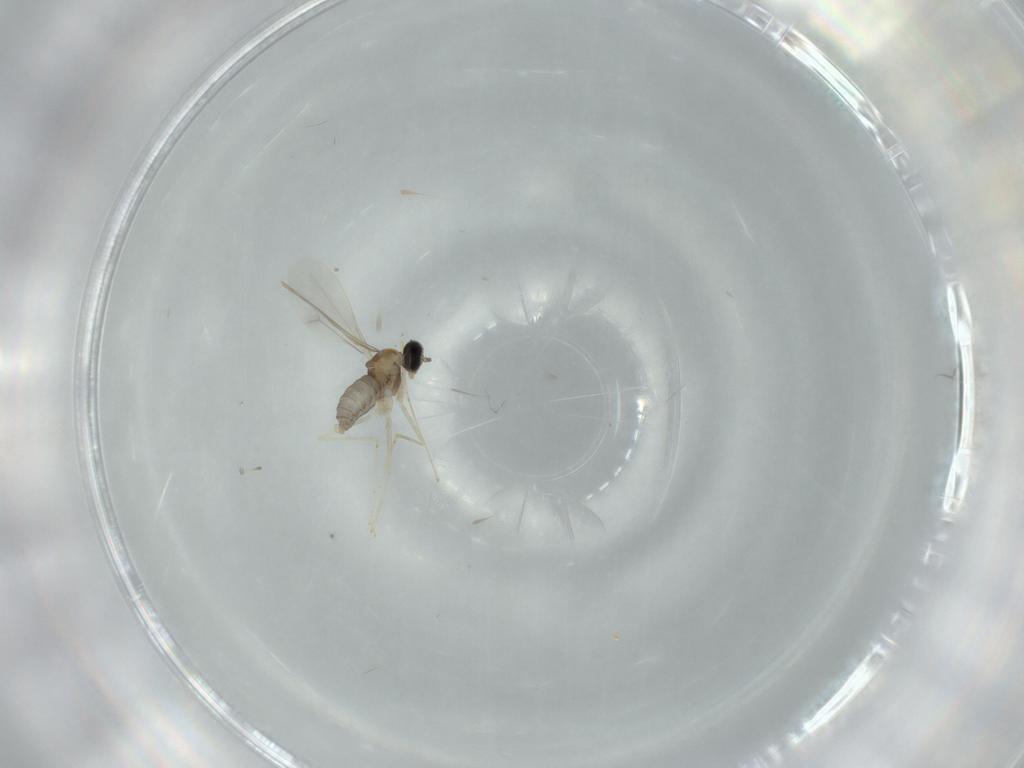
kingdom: Animalia
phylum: Arthropoda
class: Insecta
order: Diptera
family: Cecidomyiidae
